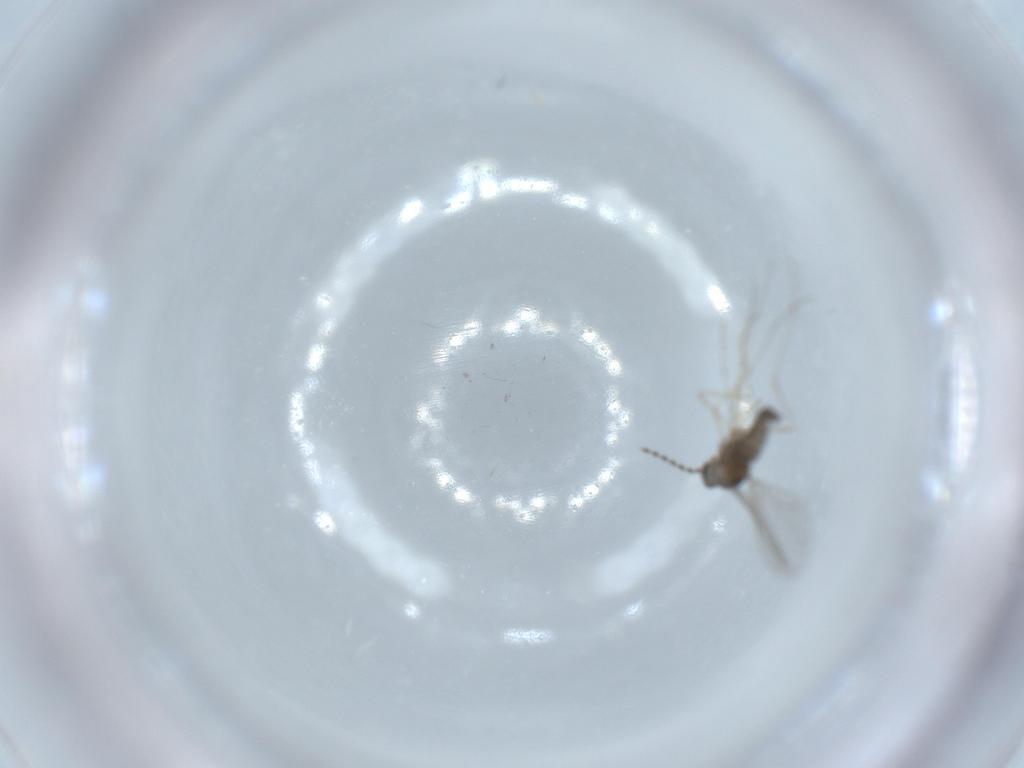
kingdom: Animalia
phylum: Arthropoda
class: Insecta
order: Diptera
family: Cecidomyiidae
